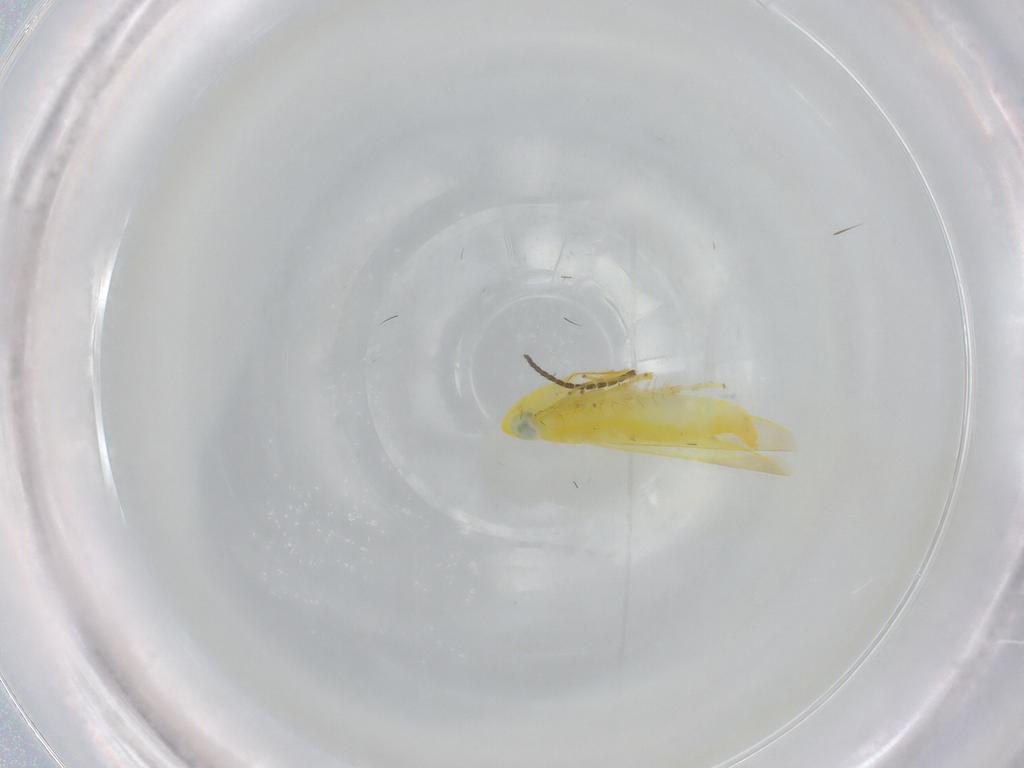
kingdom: Animalia
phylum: Arthropoda
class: Insecta
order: Hemiptera
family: Cicadellidae
